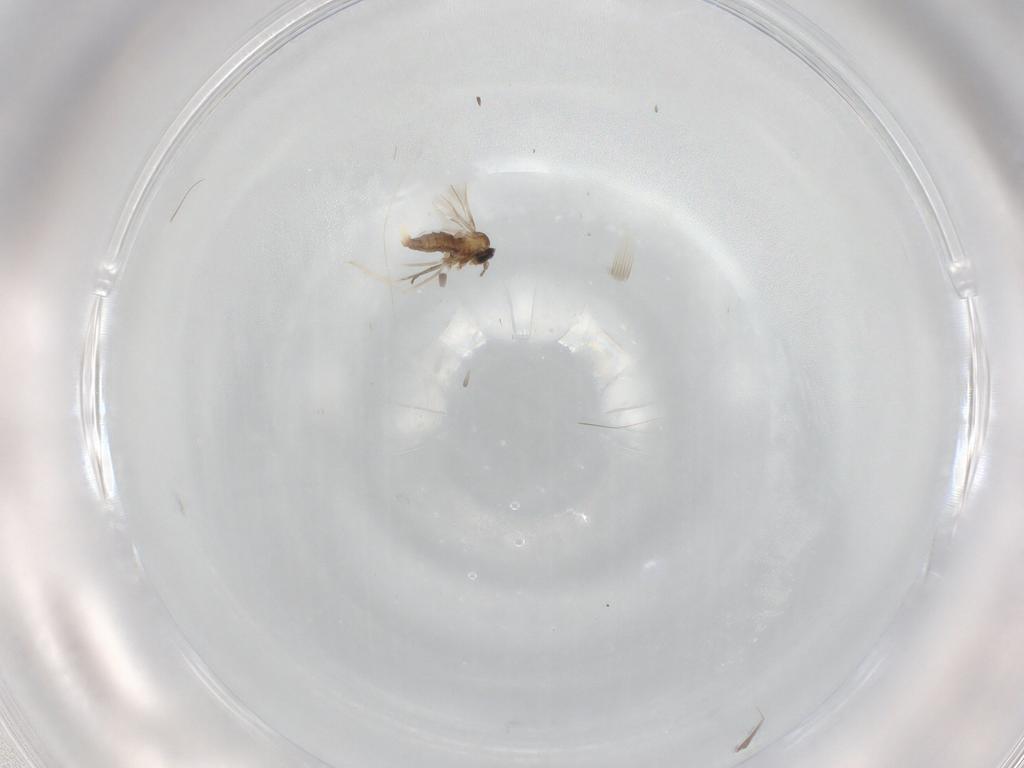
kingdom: Animalia
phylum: Arthropoda
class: Insecta
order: Diptera
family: Cecidomyiidae
